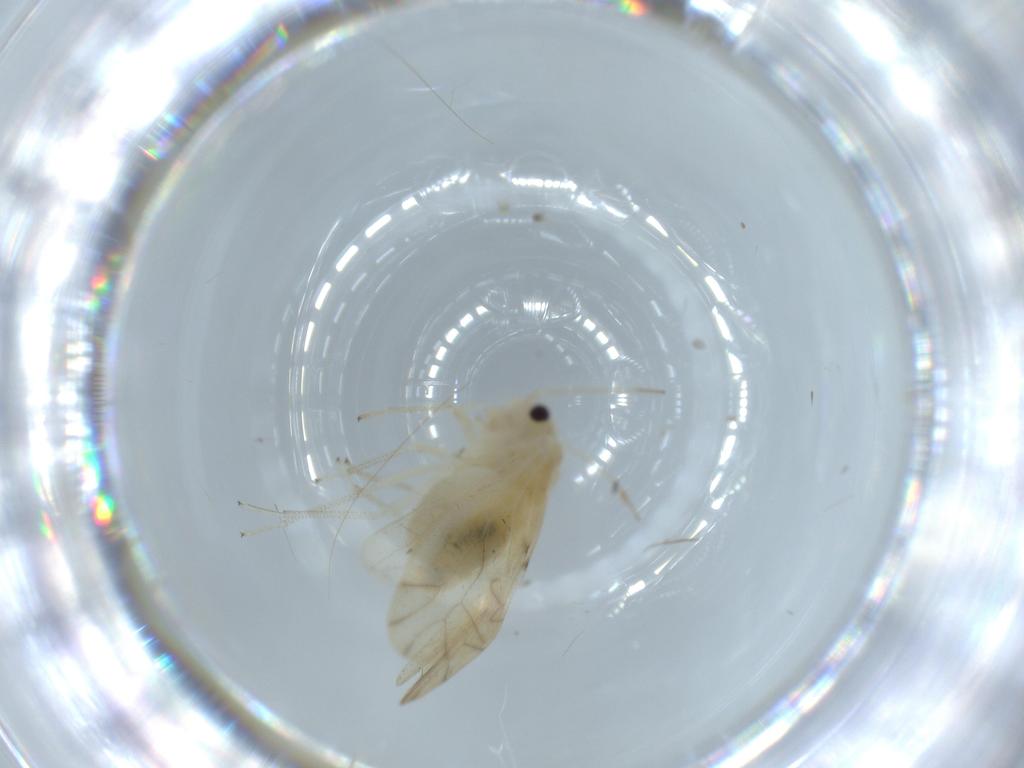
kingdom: Animalia
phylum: Arthropoda
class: Insecta
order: Psocodea
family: Caeciliusidae
